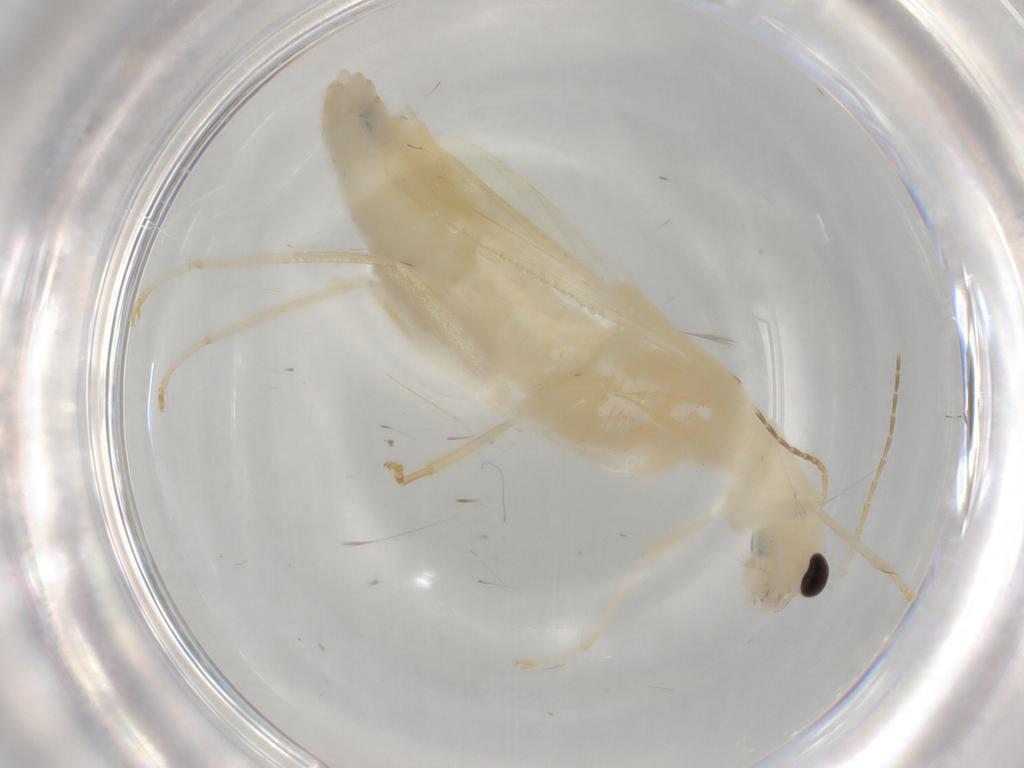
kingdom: Animalia
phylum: Arthropoda
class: Insecta
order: Coleoptera
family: Cantharidae
